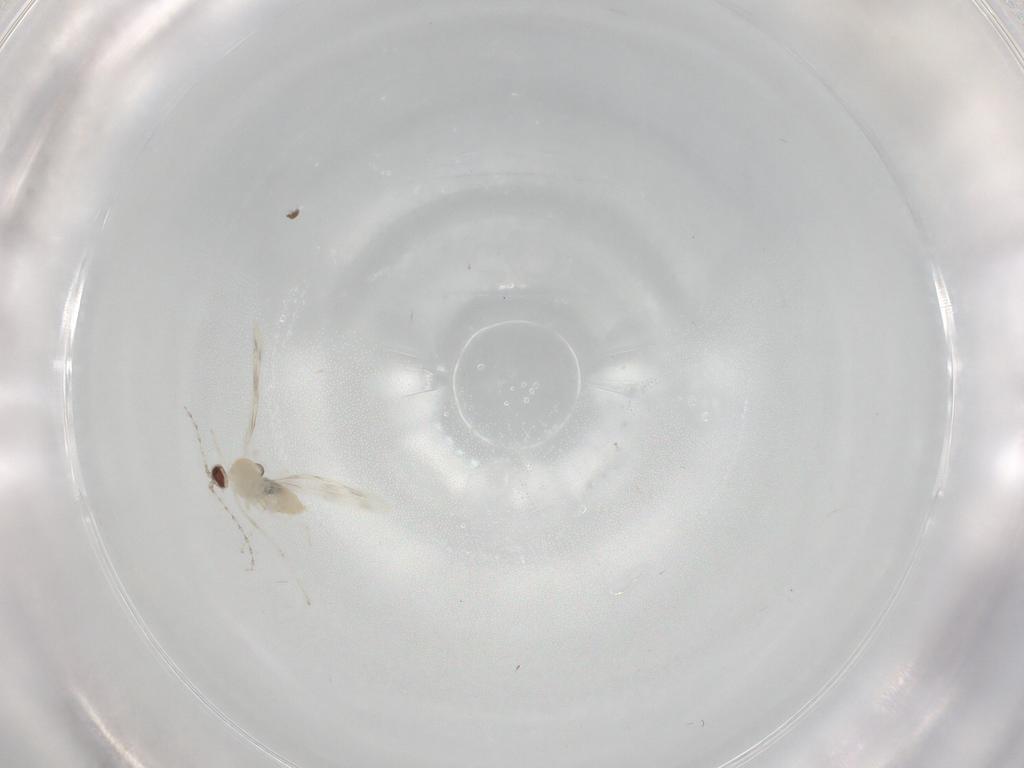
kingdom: Animalia
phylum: Arthropoda
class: Insecta
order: Diptera
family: Cecidomyiidae
